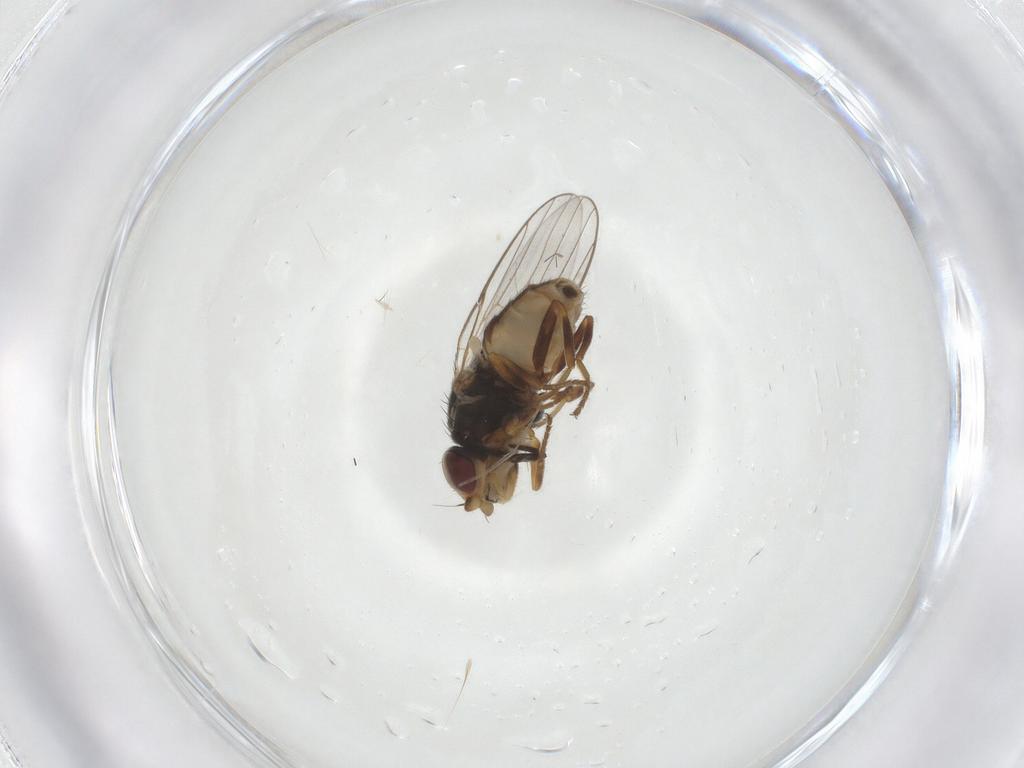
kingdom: Animalia
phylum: Arthropoda
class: Insecta
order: Diptera
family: Chloropidae
